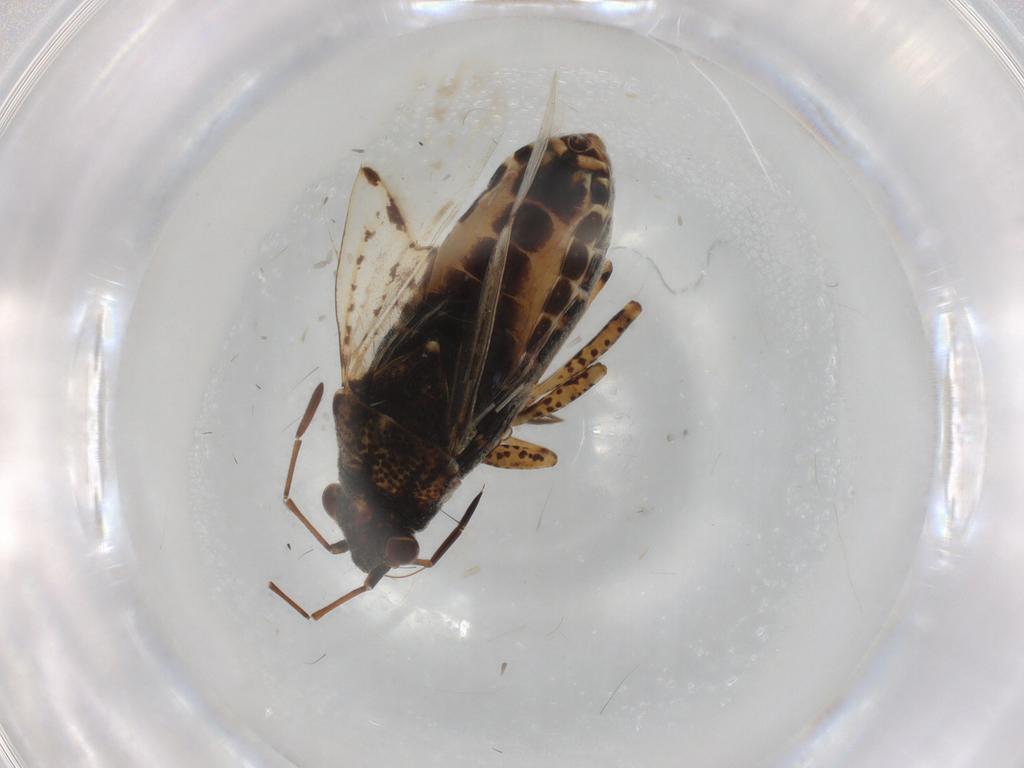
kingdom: Animalia
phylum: Arthropoda
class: Insecta
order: Hemiptera
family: Lygaeidae
